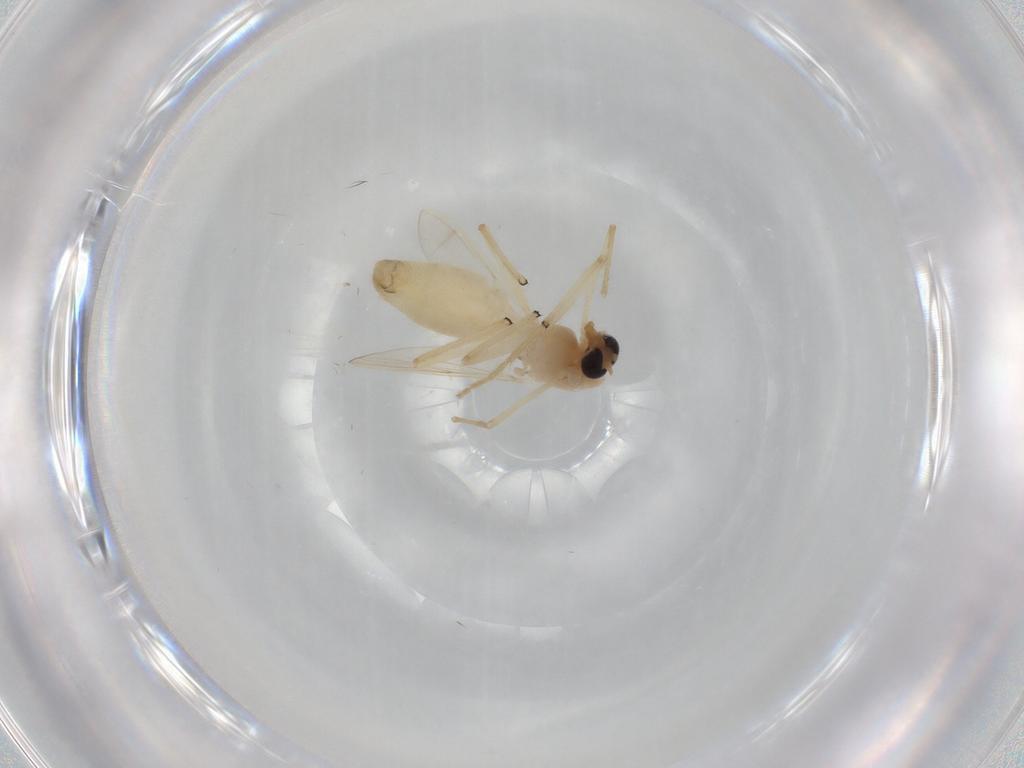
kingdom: Animalia
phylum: Arthropoda
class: Insecta
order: Diptera
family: Chironomidae
